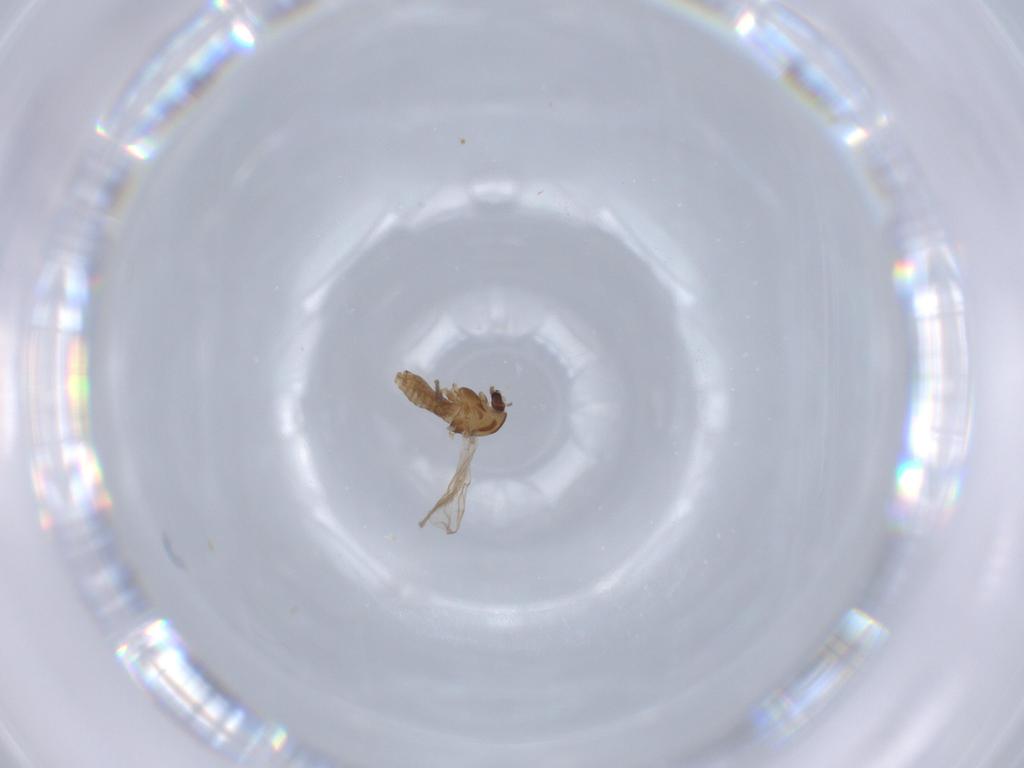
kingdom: Animalia
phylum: Arthropoda
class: Insecta
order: Diptera
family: Chironomidae
